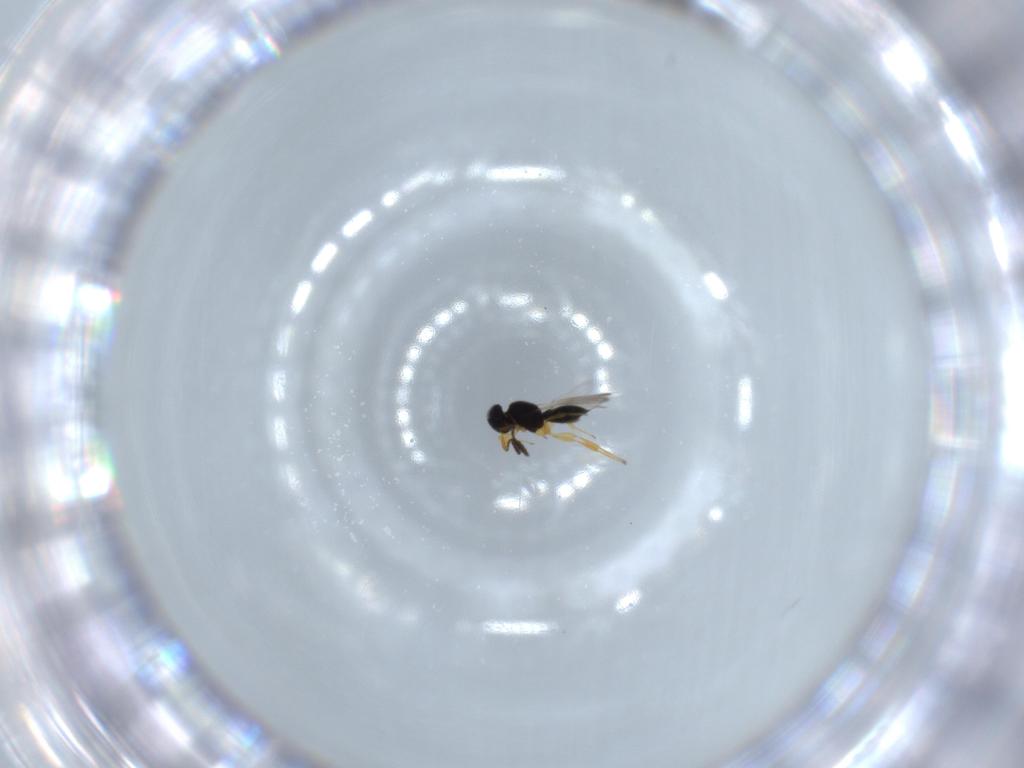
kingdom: Animalia
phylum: Arthropoda
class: Insecta
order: Hymenoptera
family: Scelionidae
